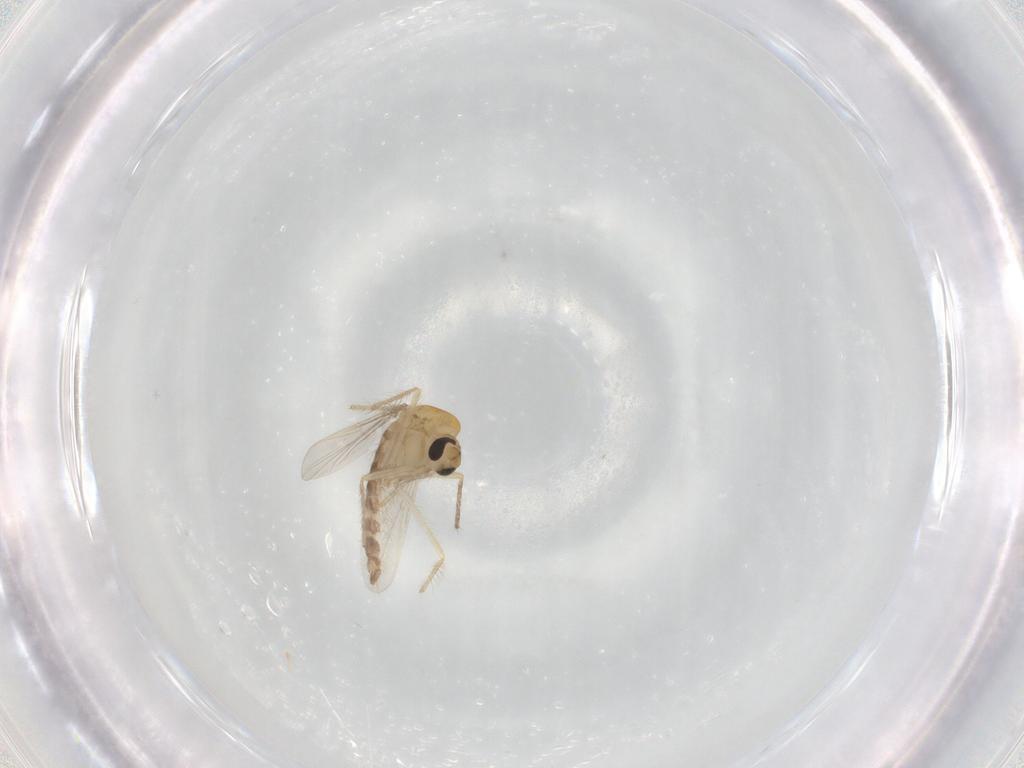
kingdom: Animalia
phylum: Arthropoda
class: Insecta
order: Diptera
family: Chironomidae
